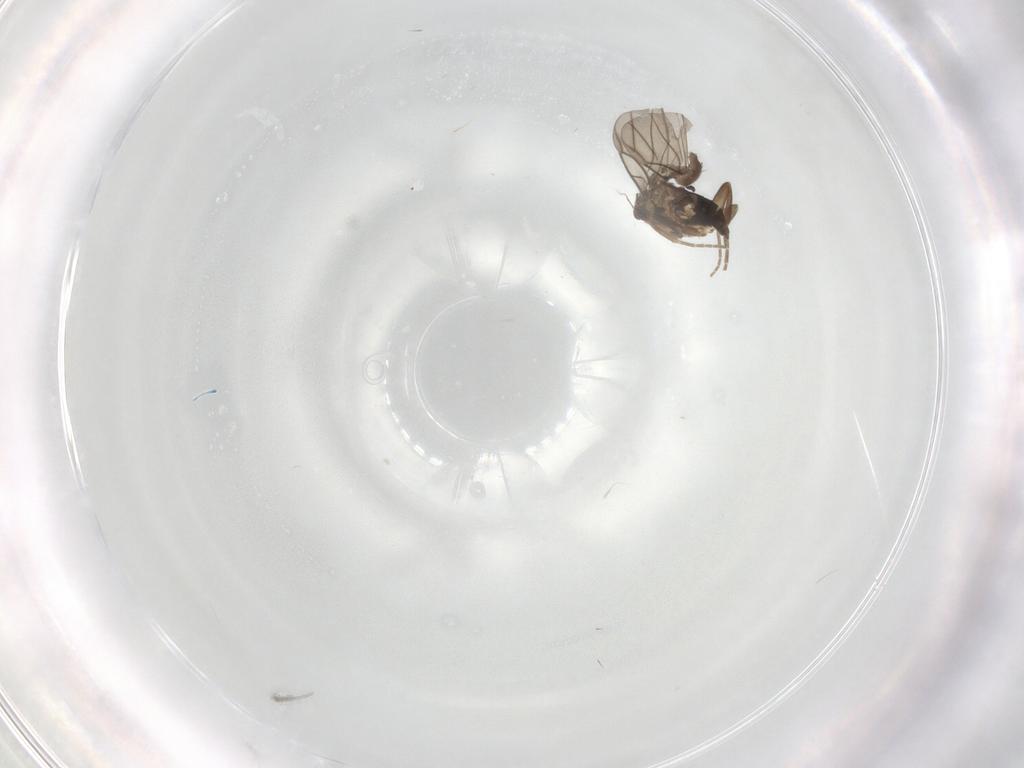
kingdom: Animalia
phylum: Arthropoda
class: Insecta
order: Diptera
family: Phoridae
